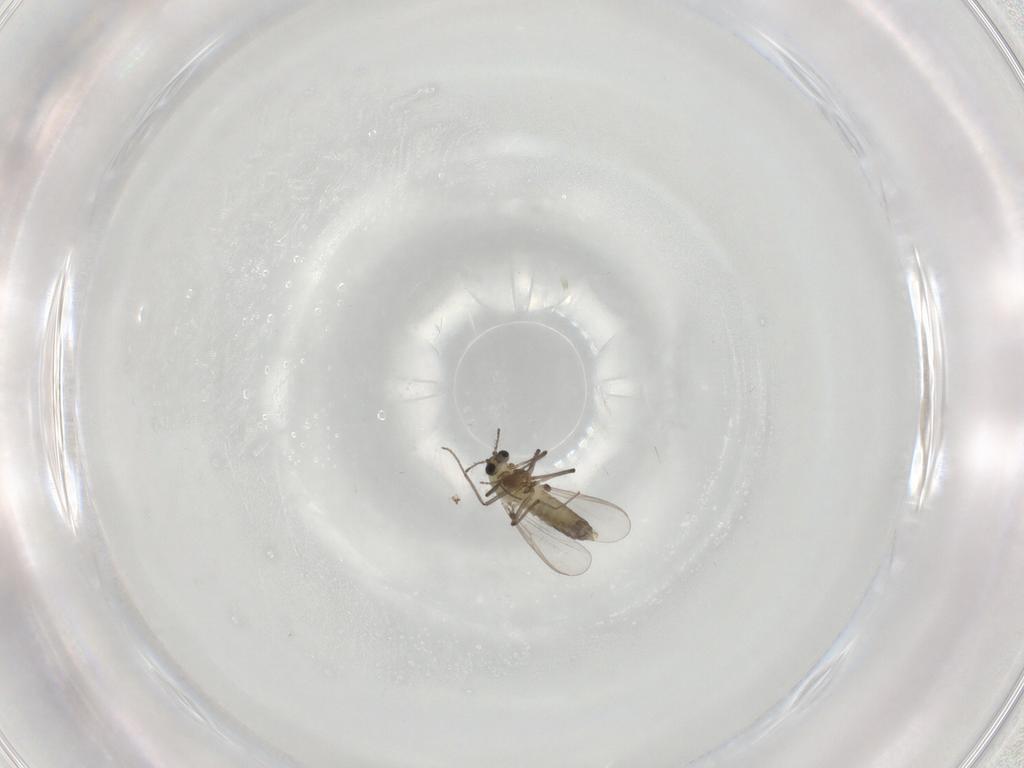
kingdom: Animalia
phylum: Arthropoda
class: Insecta
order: Diptera
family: Chironomidae
